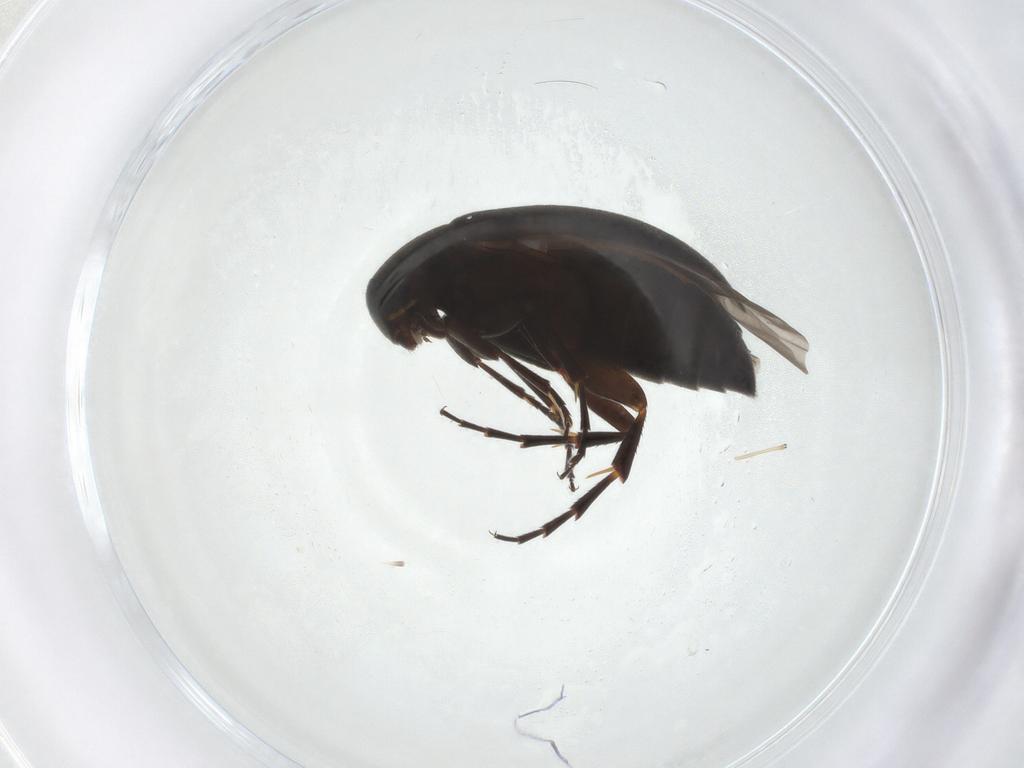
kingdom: Animalia
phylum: Arthropoda
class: Insecta
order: Coleoptera
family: Scraptiidae
